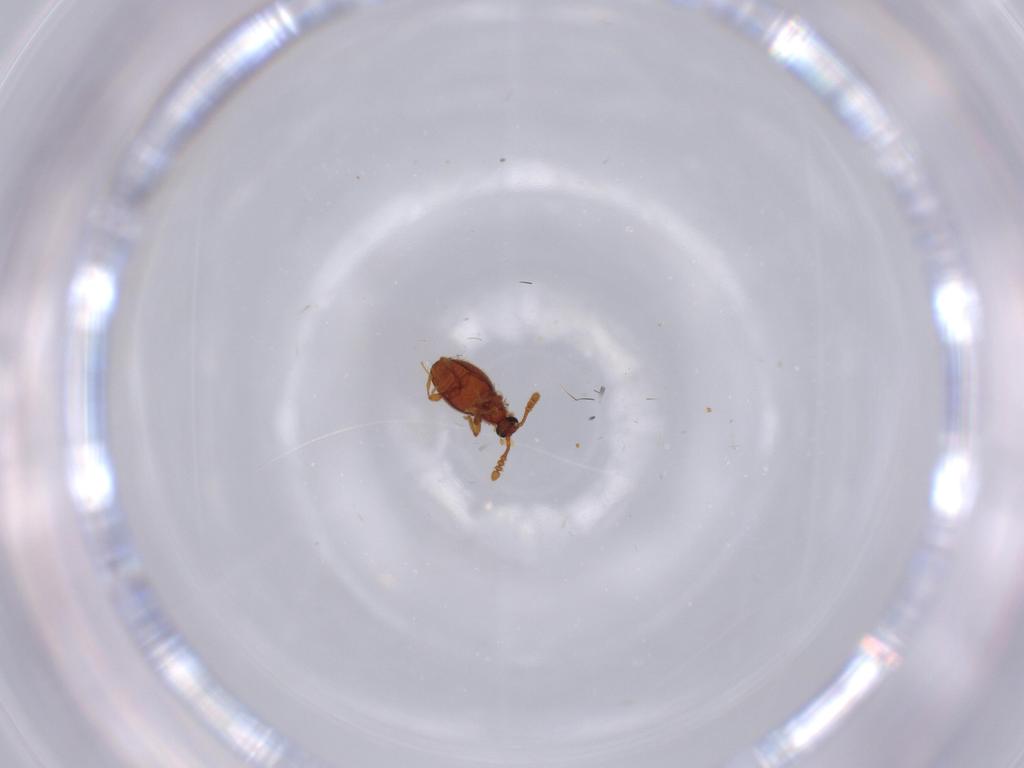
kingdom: Animalia
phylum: Arthropoda
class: Insecta
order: Coleoptera
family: Staphylinidae
